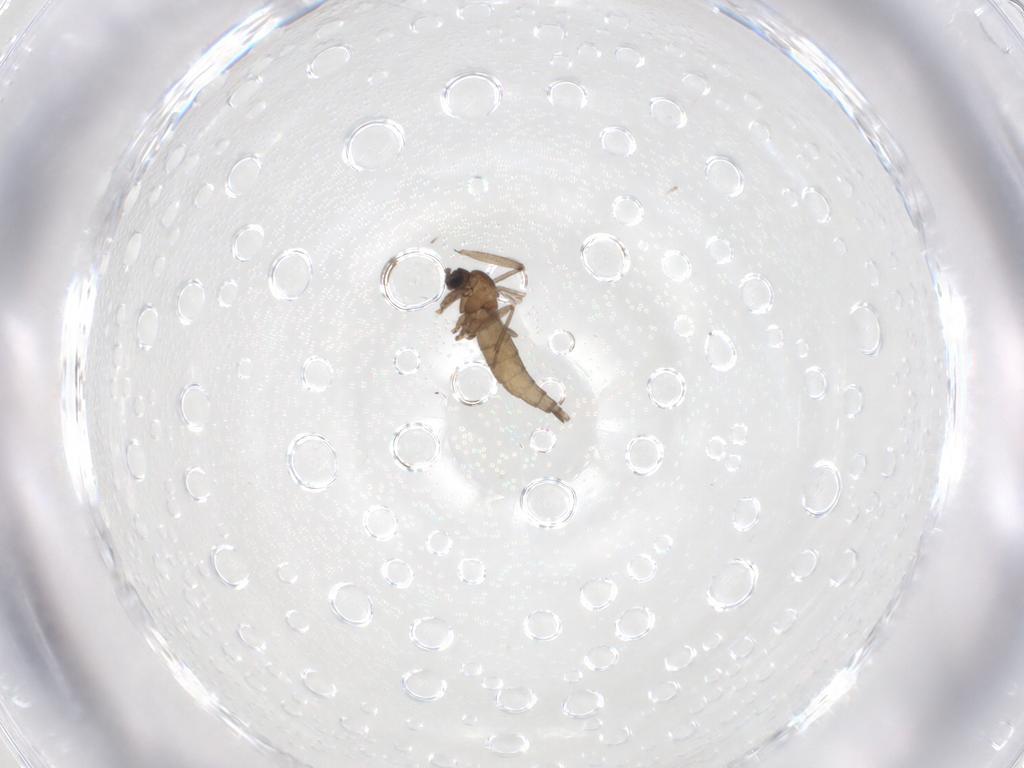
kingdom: Animalia
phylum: Arthropoda
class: Insecta
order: Diptera
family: Sciaridae
